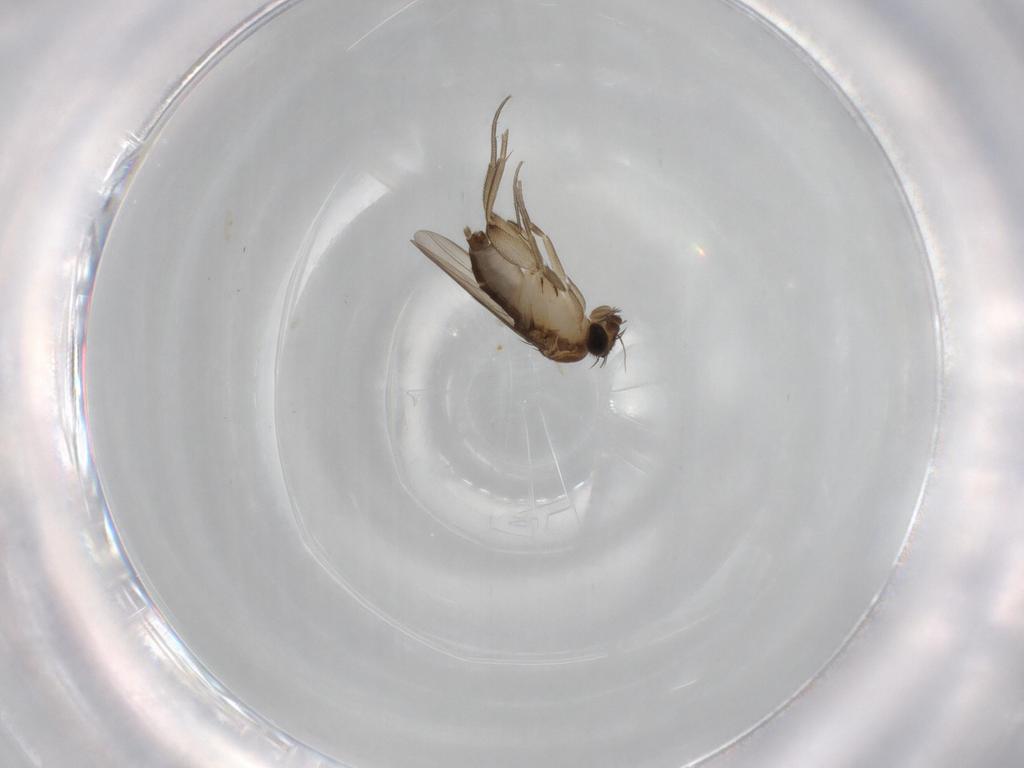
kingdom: Animalia
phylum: Arthropoda
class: Insecta
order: Diptera
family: Phoridae
